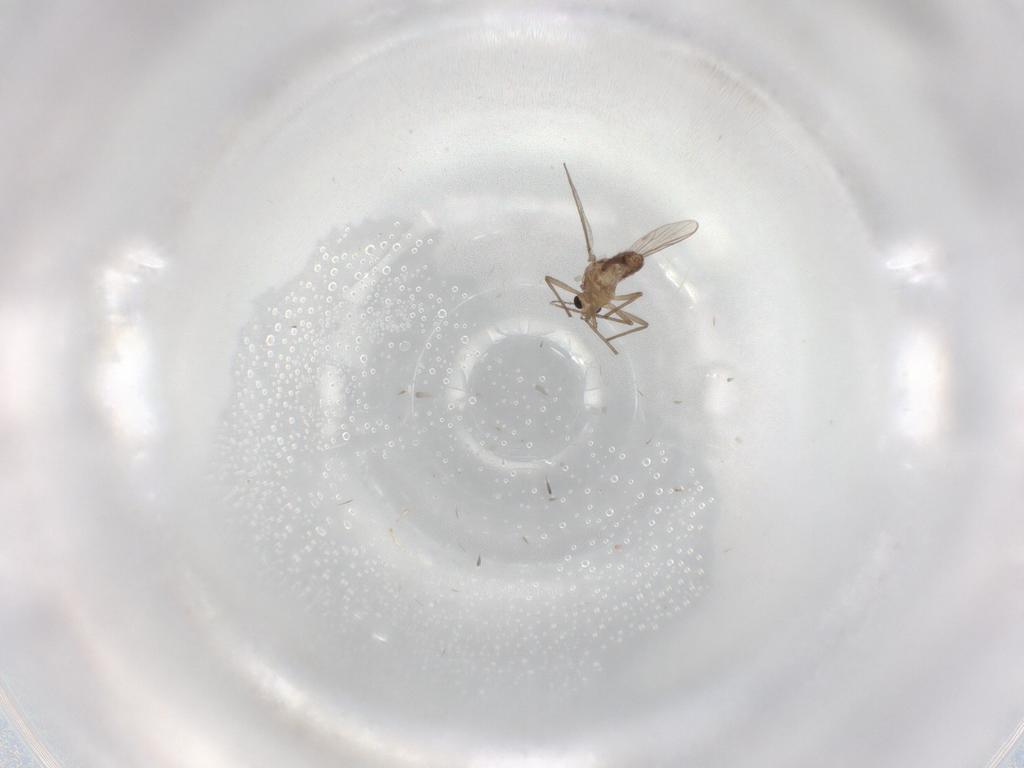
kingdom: Animalia
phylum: Arthropoda
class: Insecta
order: Diptera
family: Chironomidae
